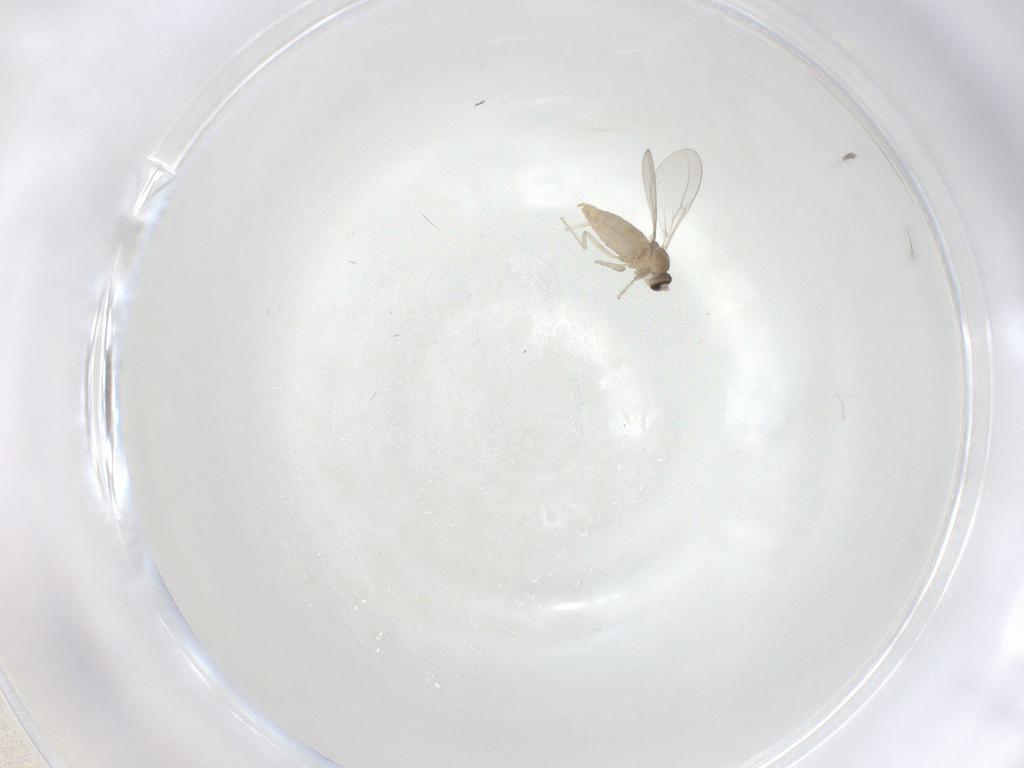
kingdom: Animalia
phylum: Arthropoda
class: Insecta
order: Diptera
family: Cecidomyiidae
